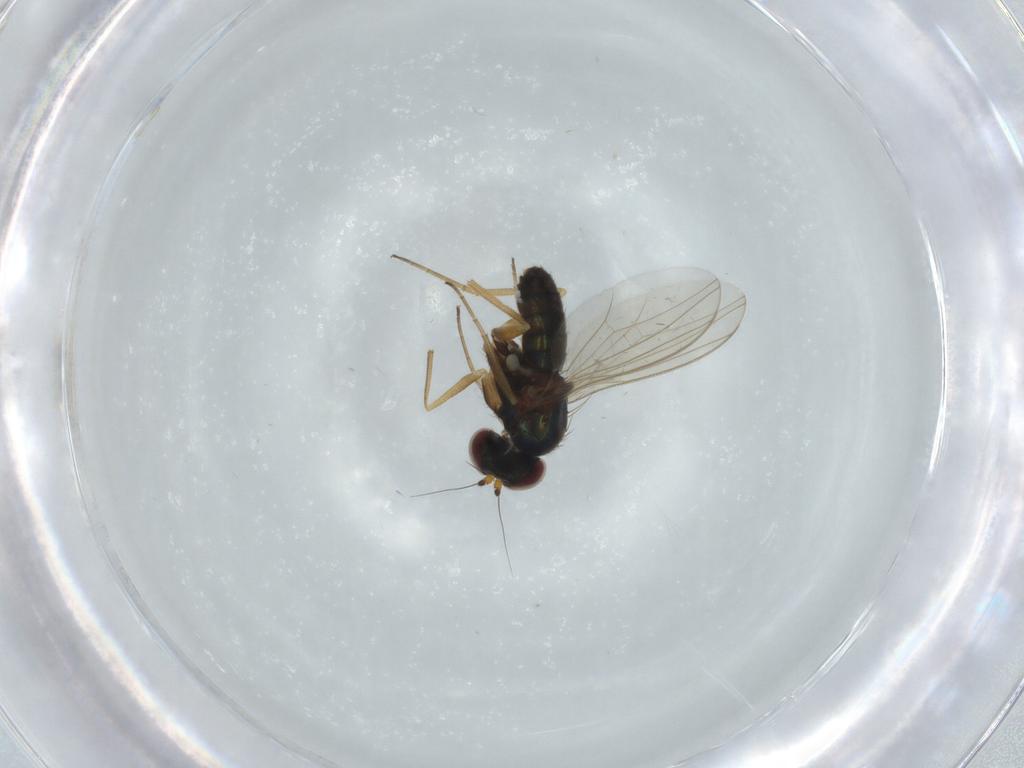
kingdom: Animalia
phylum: Arthropoda
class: Insecta
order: Diptera
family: Dolichopodidae
